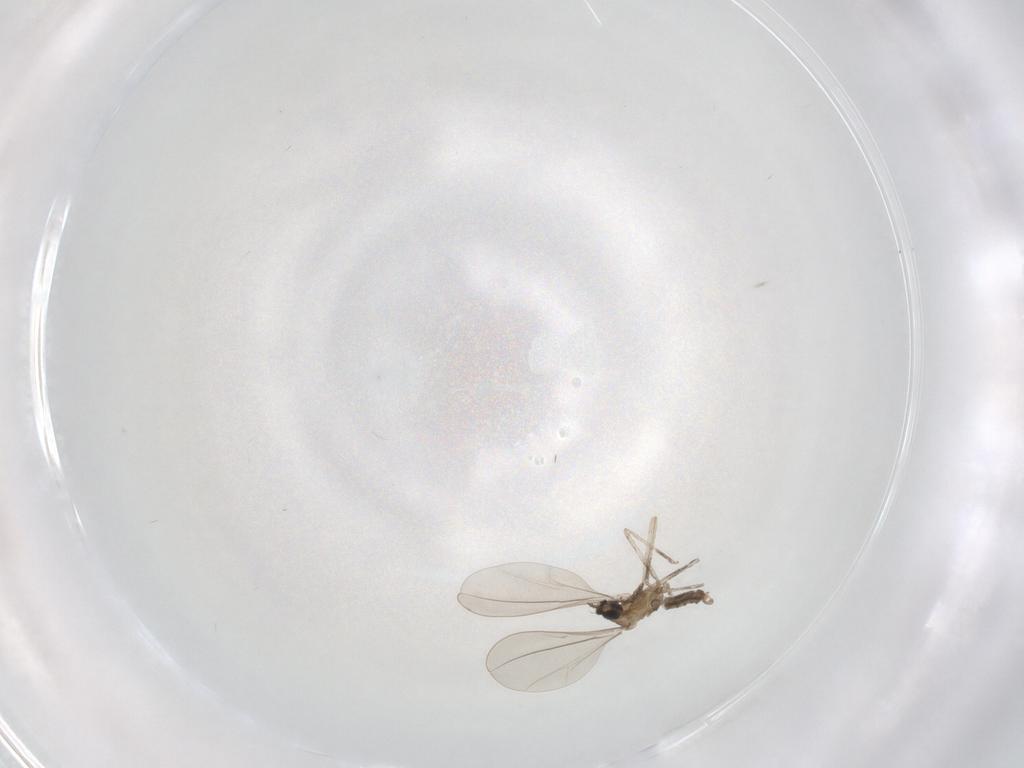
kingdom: Animalia
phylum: Arthropoda
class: Insecta
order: Diptera
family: Cecidomyiidae
